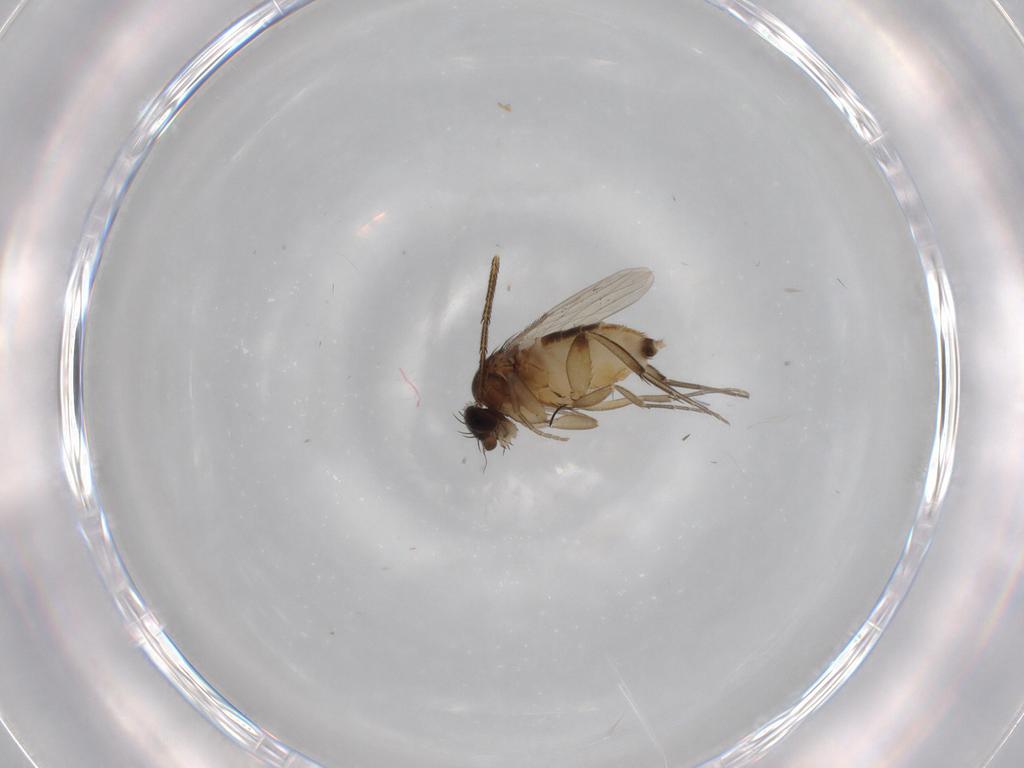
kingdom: Animalia
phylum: Arthropoda
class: Insecta
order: Diptera
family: Muscidae
